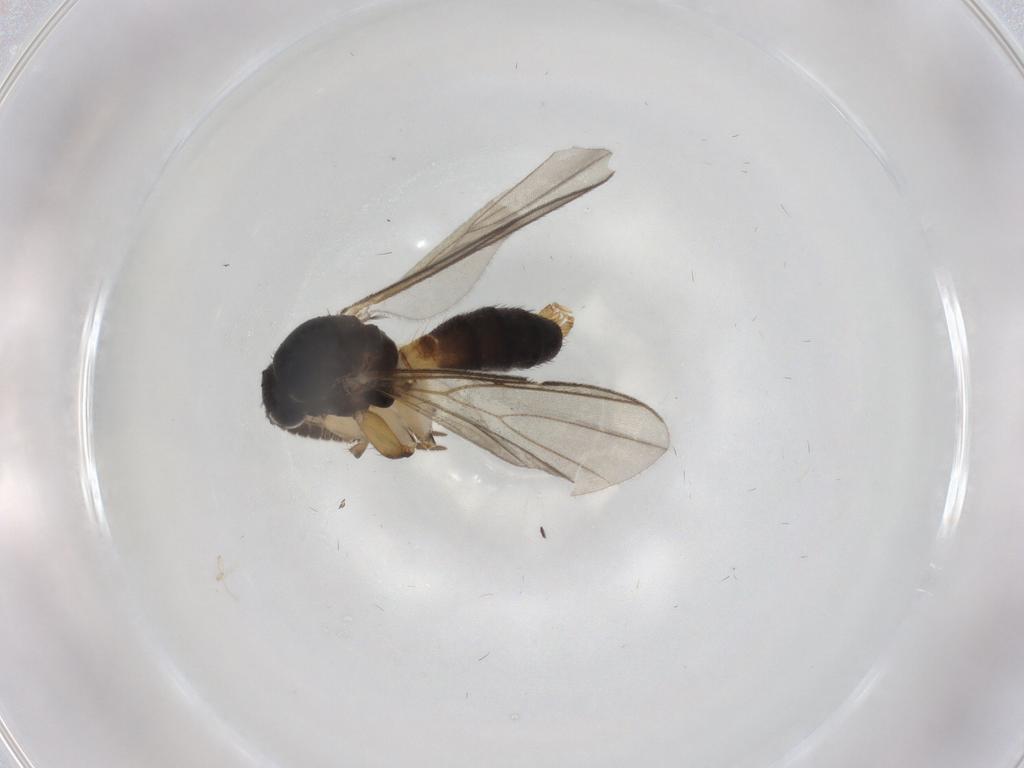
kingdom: Animalia
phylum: Arthropoda
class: Insecta
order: Diptera
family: Mycetophilidae
